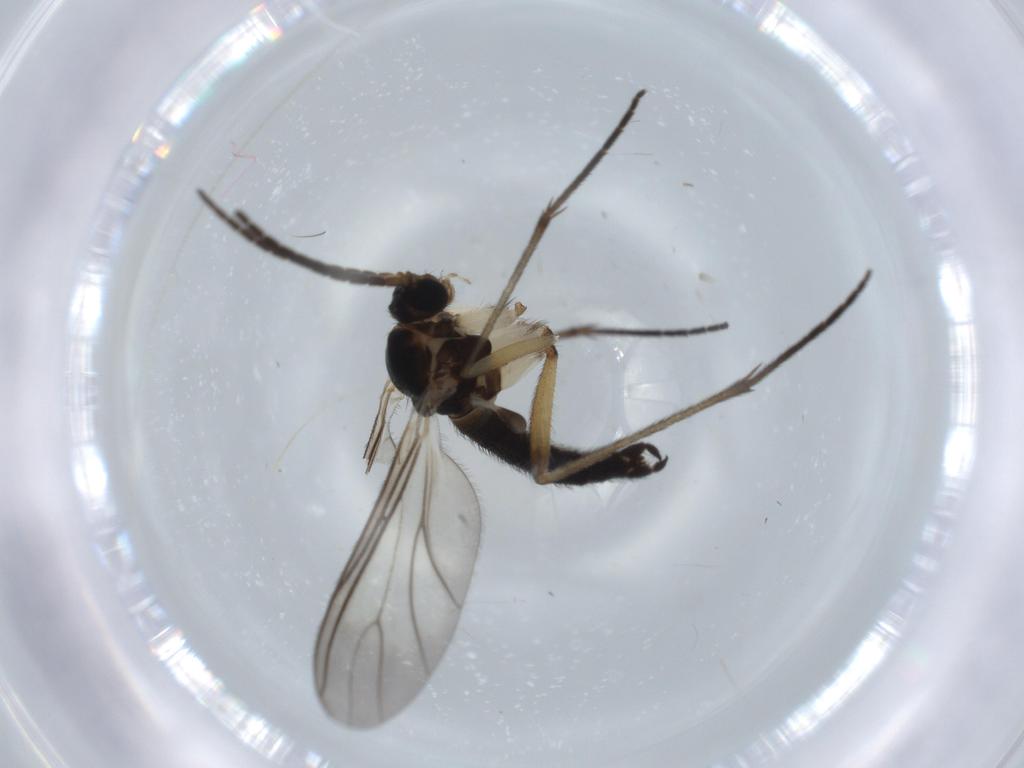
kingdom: Animalia
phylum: Arthropoda
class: Insecta
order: Diptera
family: Sciaridae
